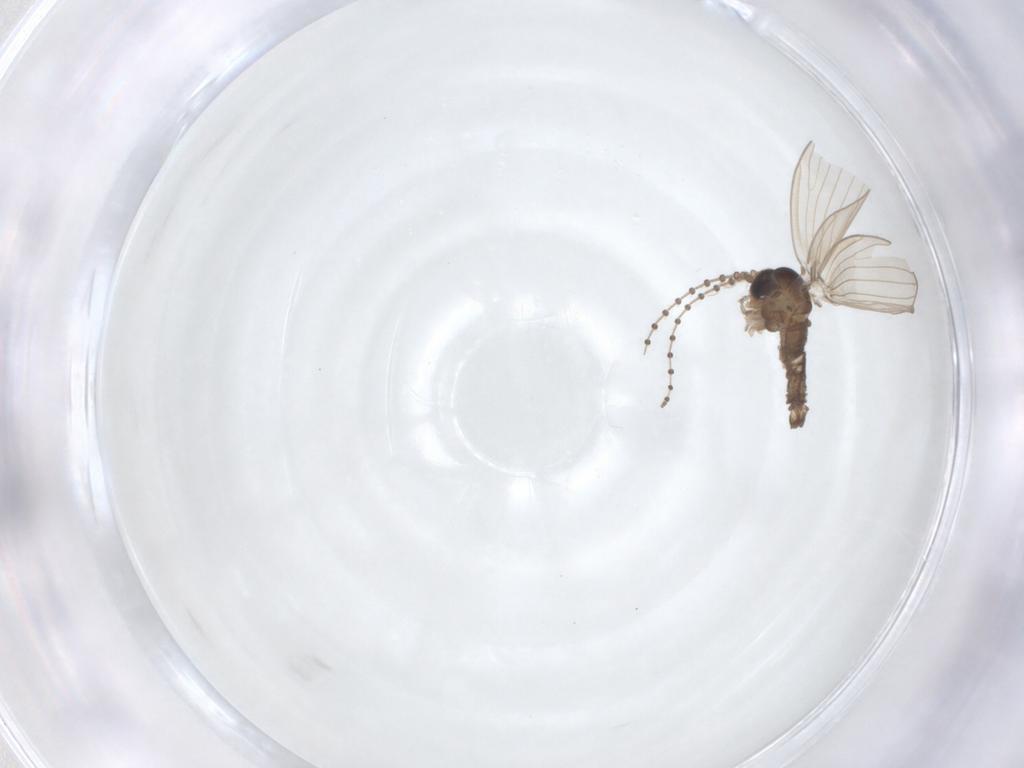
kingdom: Animalia
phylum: Arthropoda
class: Insecta
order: Diptera
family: Psychodidae
